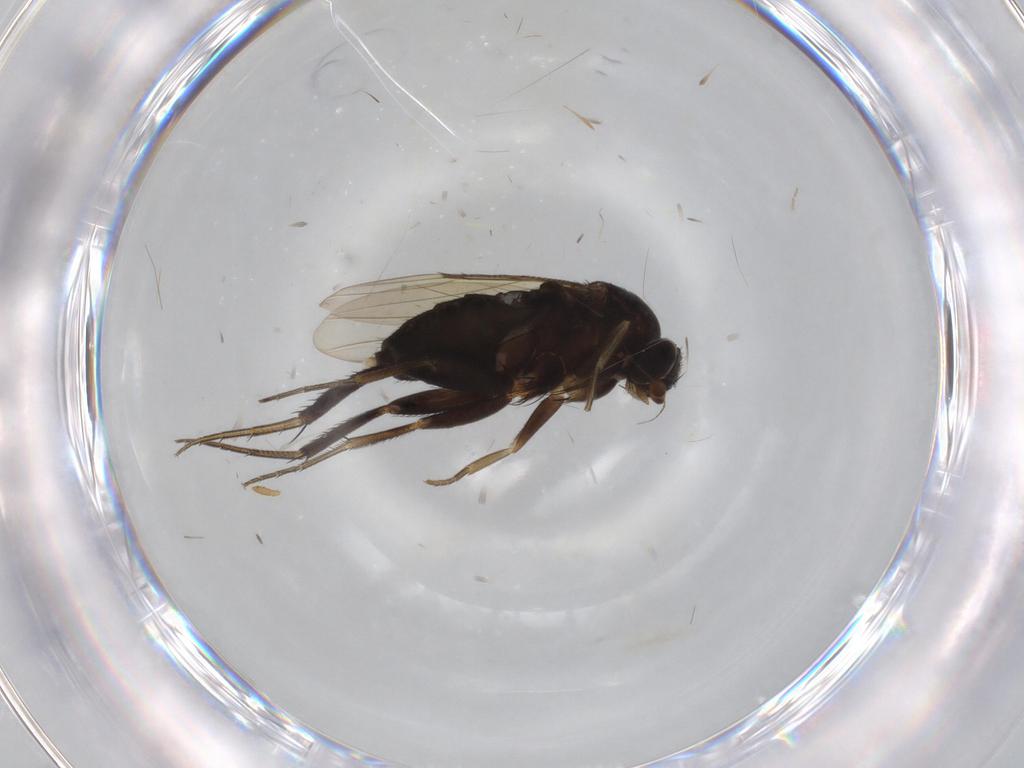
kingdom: Animalia
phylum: Arthropoda
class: Insecta
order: Diptera
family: Phoridae
